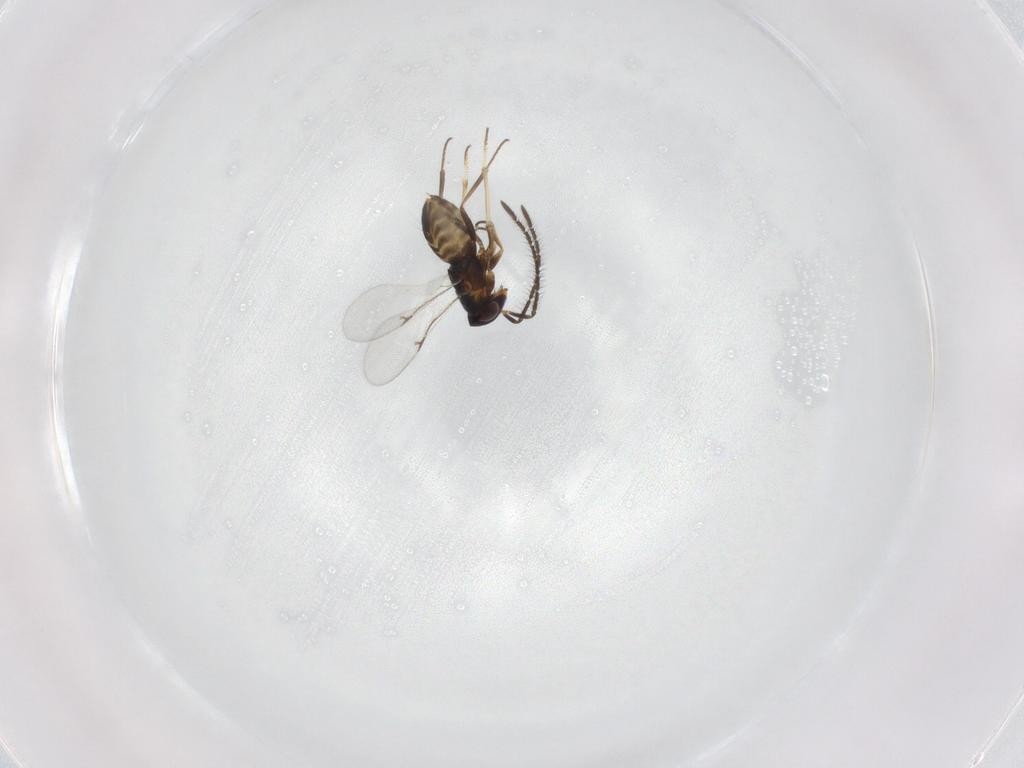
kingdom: Animalia
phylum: Arthropoda
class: Insecta
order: Hymenoptera
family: Encyrtidae
